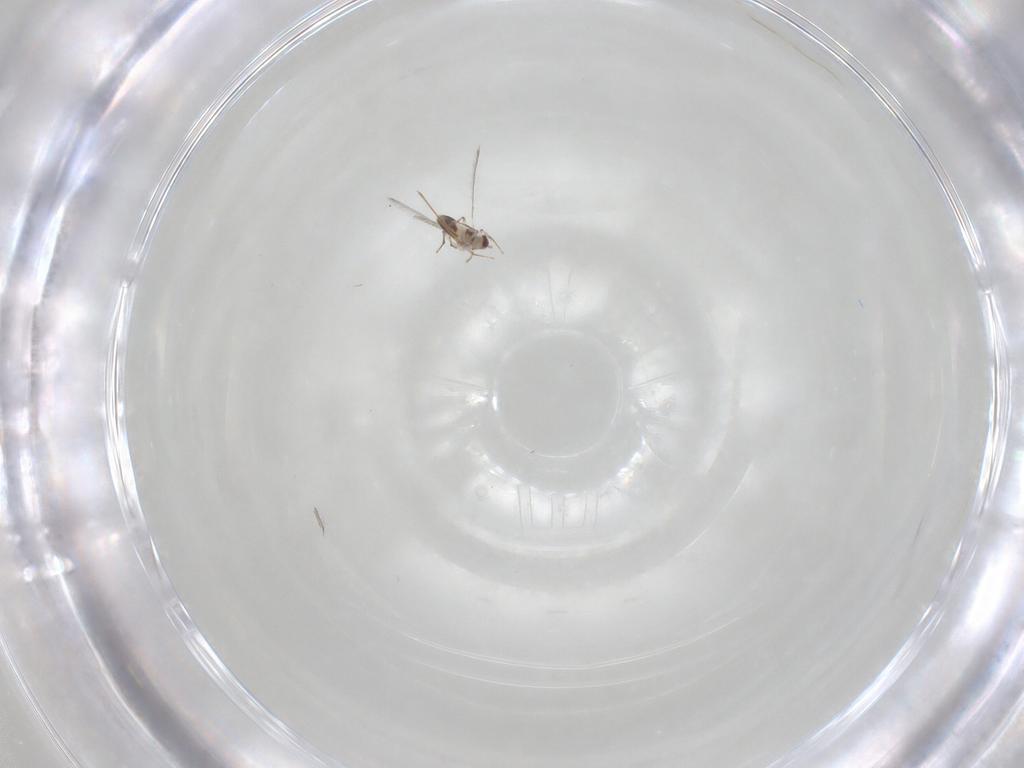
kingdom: Animalia
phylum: Arthropoda
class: Insecta
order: Hymenoptera
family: Mymaridae
